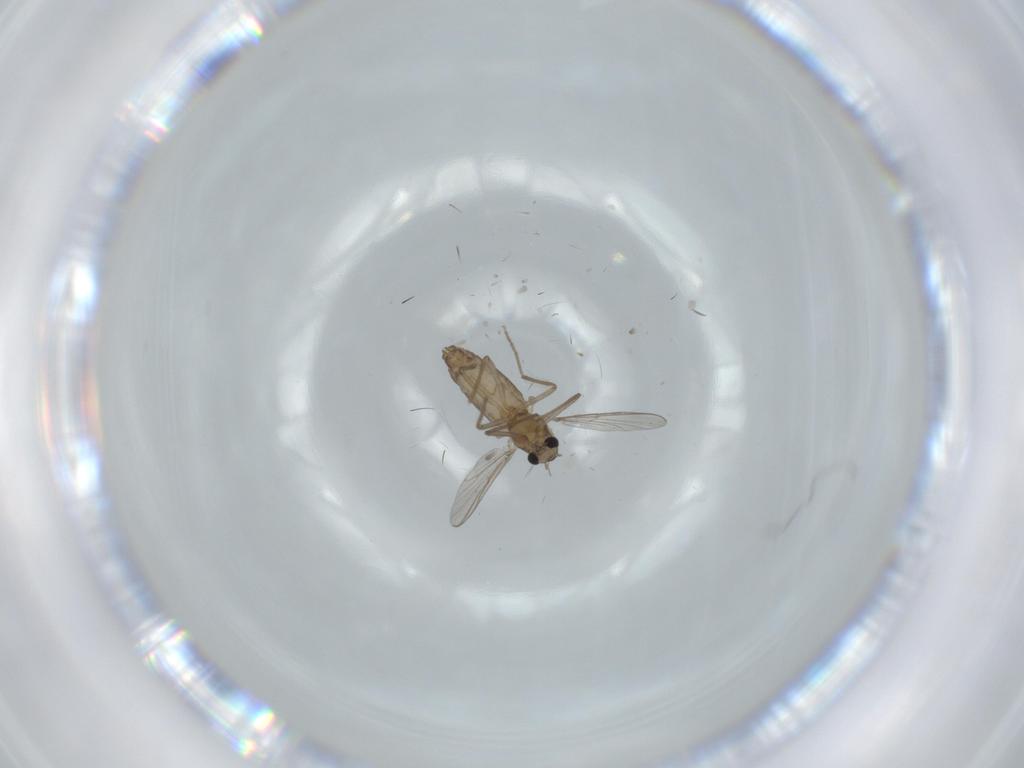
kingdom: Animalia
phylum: Arthropoda
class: Insecta
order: Diptera
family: Chironomidae
